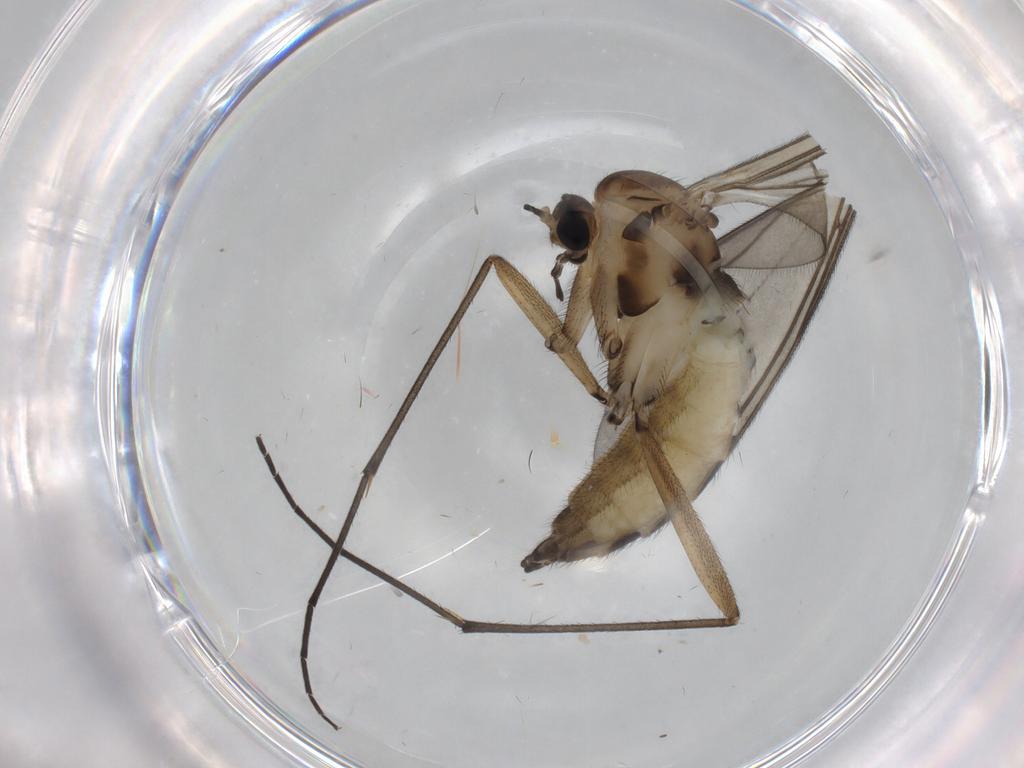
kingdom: Animalia
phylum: Arthropoda
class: Insecta
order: Diptera
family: Sciaridae
